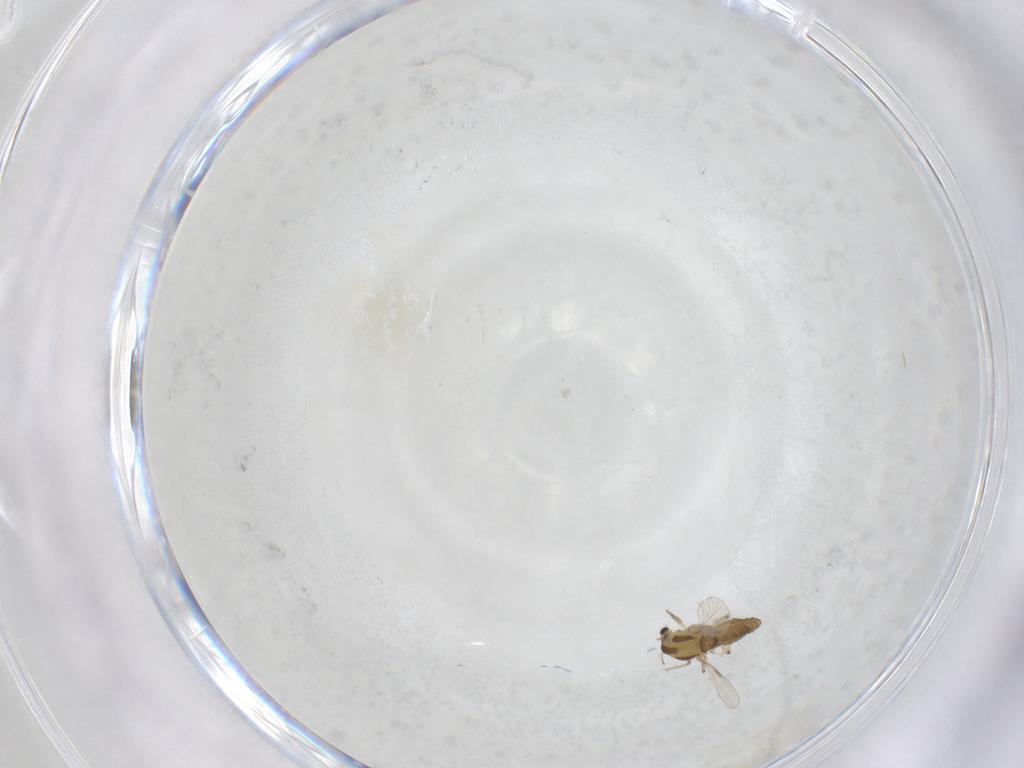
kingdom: Animalia
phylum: Arthropoda
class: Insecta
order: Diptera
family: Chironomidae
